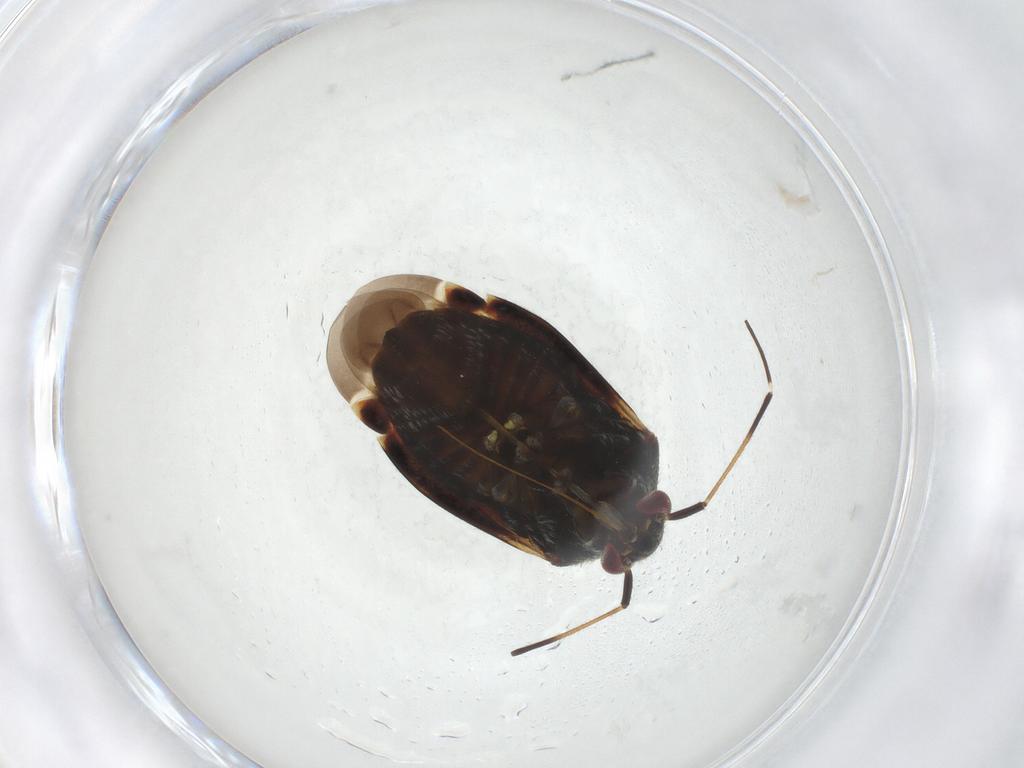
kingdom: Animalia
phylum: Arthropoda
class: Insecta
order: Hemiptera
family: Miridae
